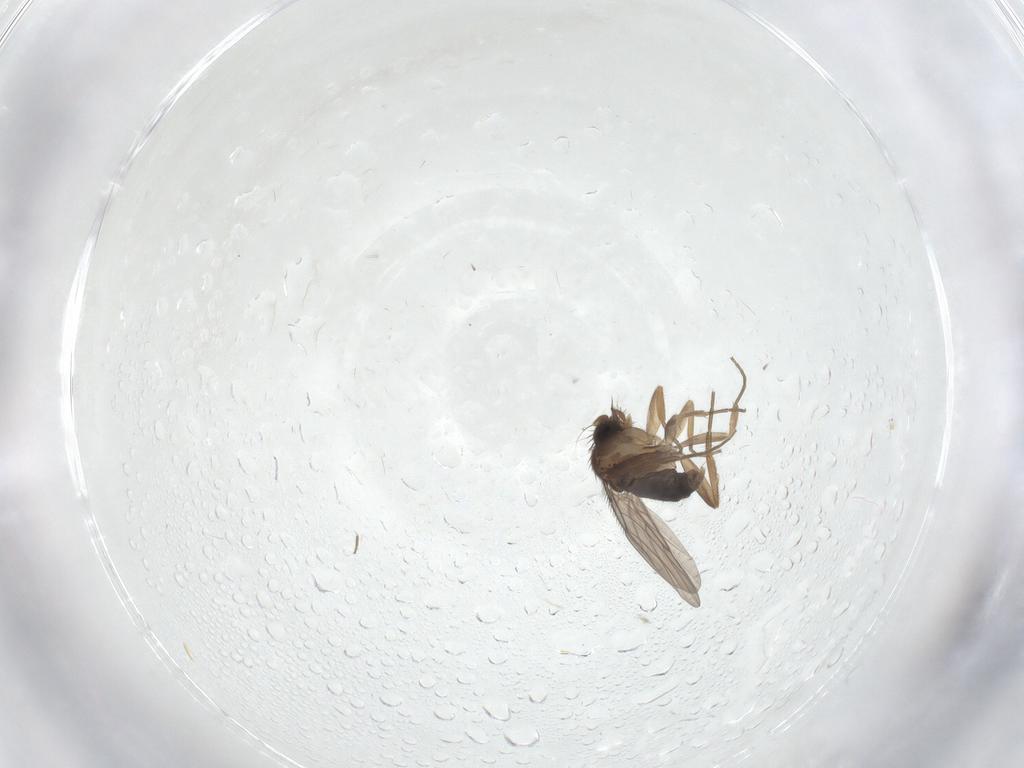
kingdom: Animalia
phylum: Arthropoda
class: Insecta
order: Diptera
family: Phoridae
